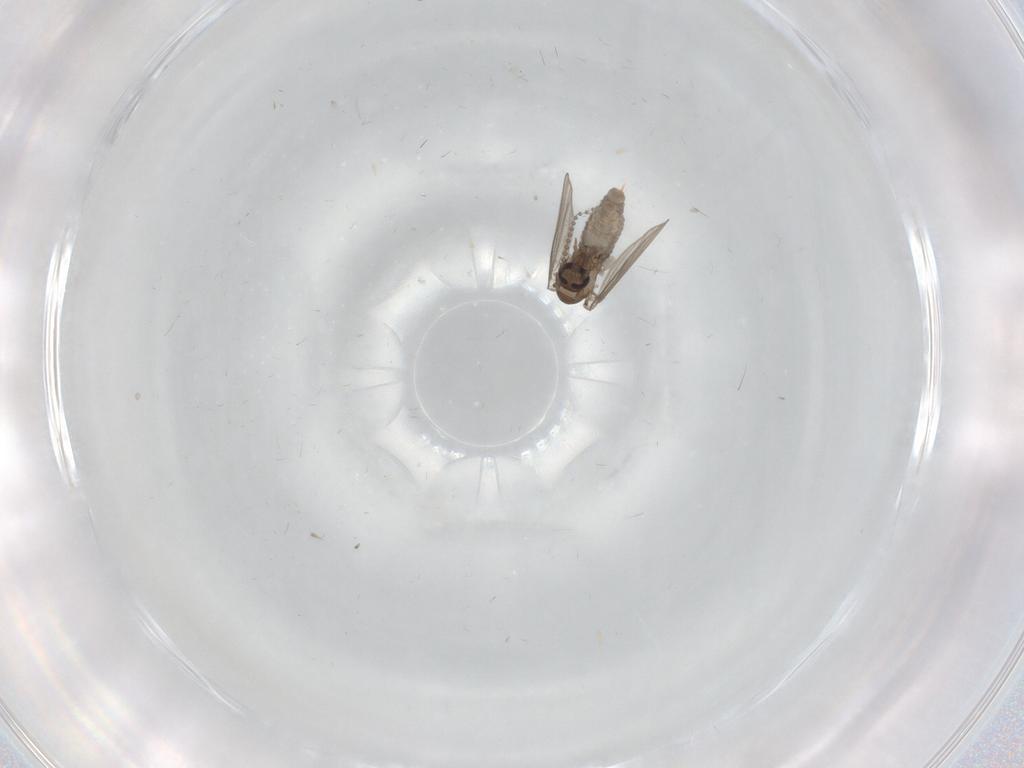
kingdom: Animalia
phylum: Arthropoda
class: Insecta
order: Diptera
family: Psychodidae
